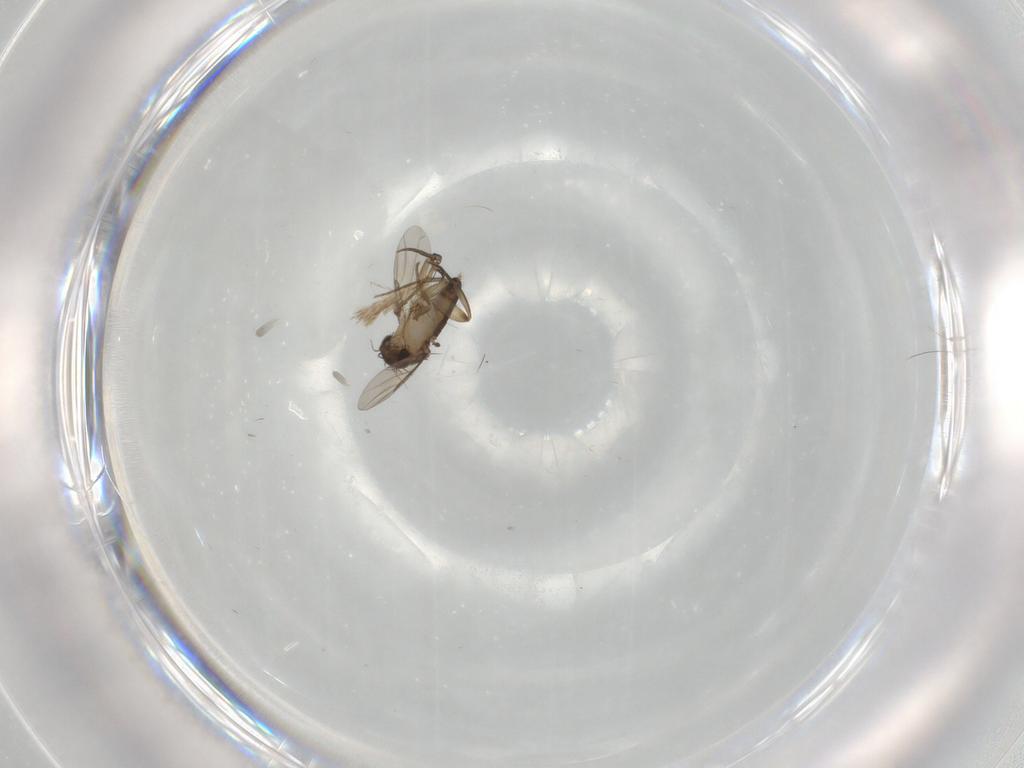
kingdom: Animalia
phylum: Arthropoda
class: Insecta
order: Diptera
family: Phoridae
